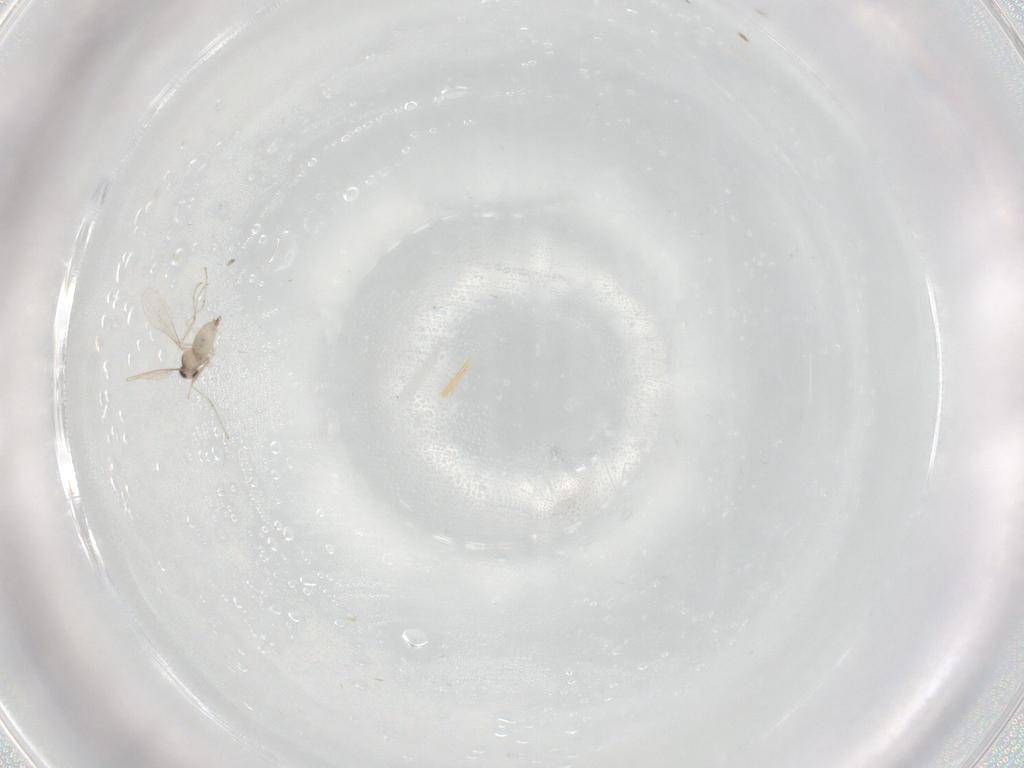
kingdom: Animalia
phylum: Arthropoda
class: Insecta
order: Diptera
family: Cecidomyiidae
